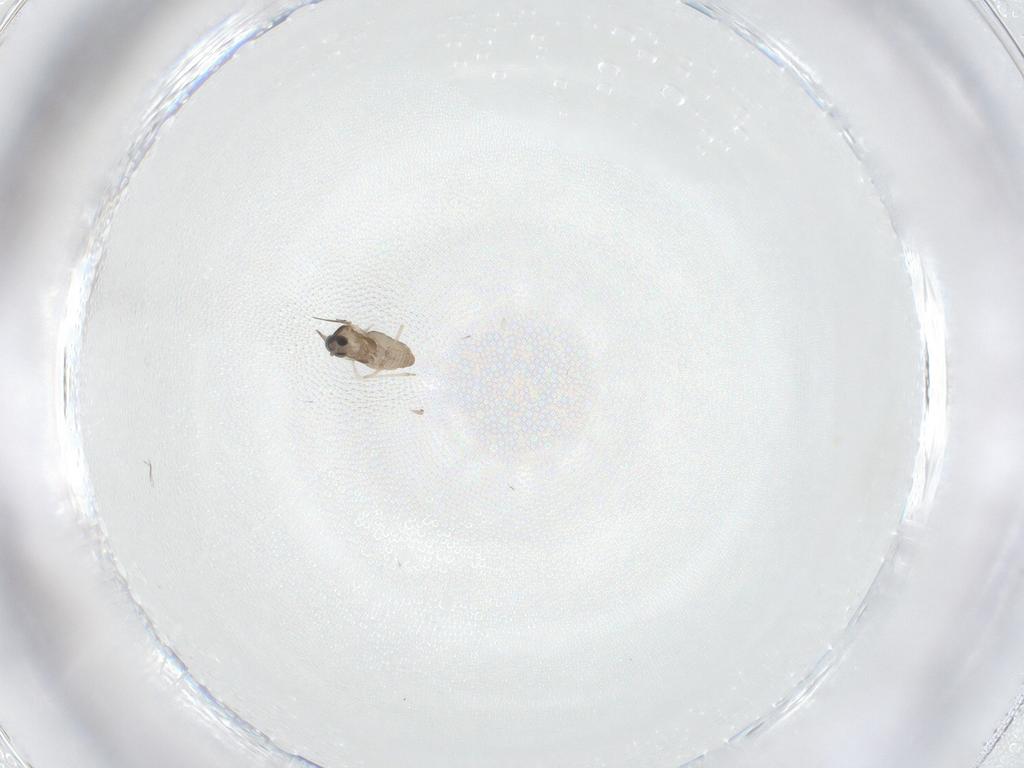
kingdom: Animalia
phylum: Arthropoda
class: Insecta
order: Diptera
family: Cecidomyiidae
